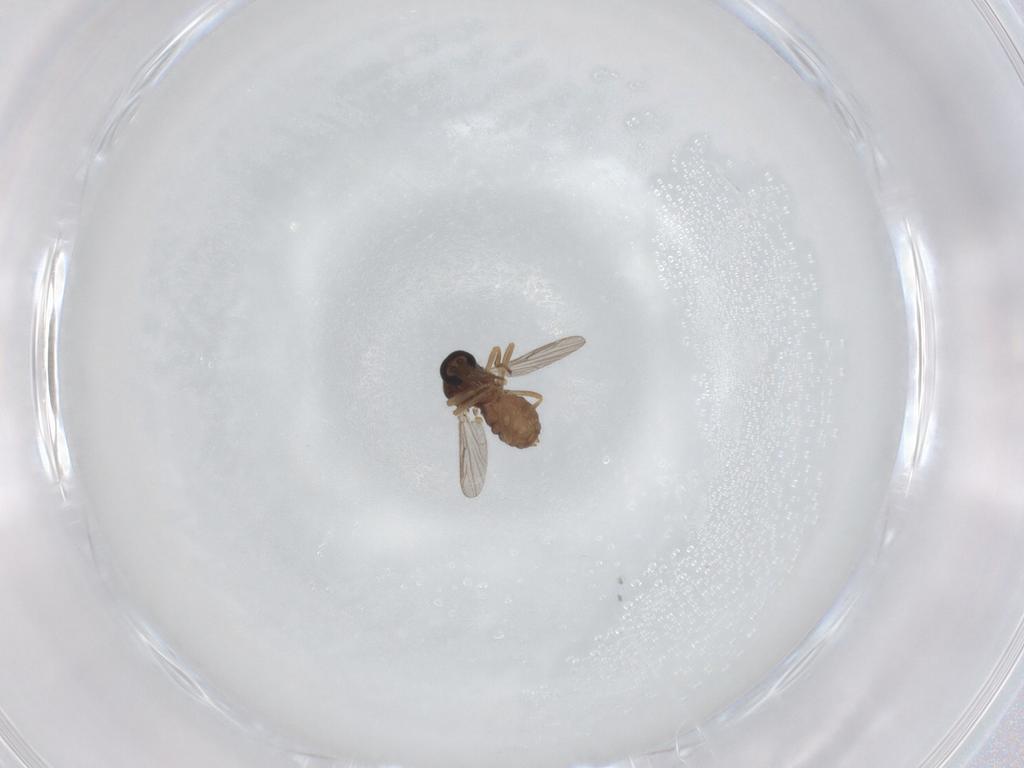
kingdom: Animalia
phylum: Arthropoda
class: Insecta
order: Diptera
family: Ceratopogonidae
